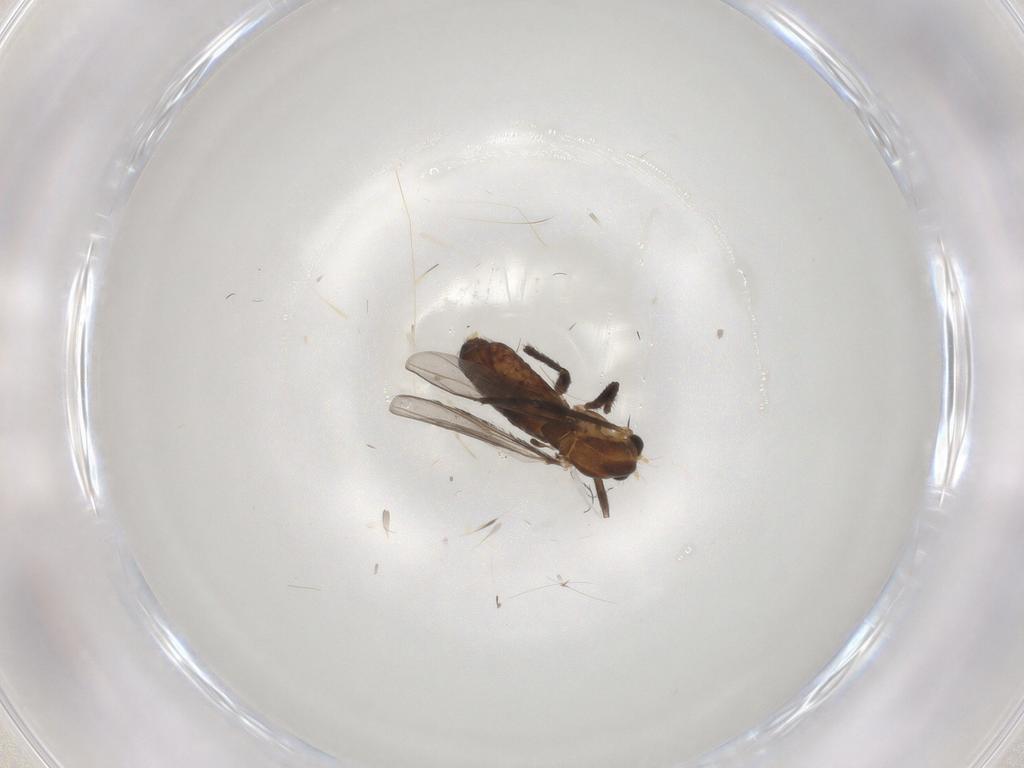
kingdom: Animalia
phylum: Arthropoda
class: Insecta
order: Diptera
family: Chironomidae
